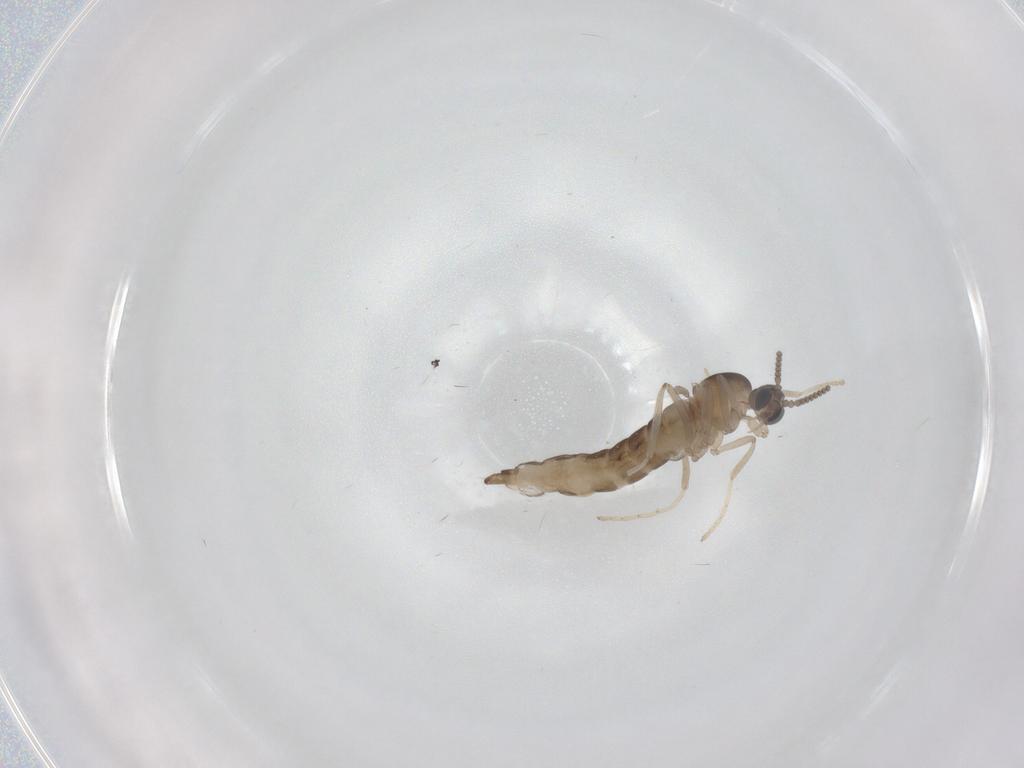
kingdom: Animalia
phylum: Arthropoda
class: Insecta
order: Diptera
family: Cecidomyiidae
